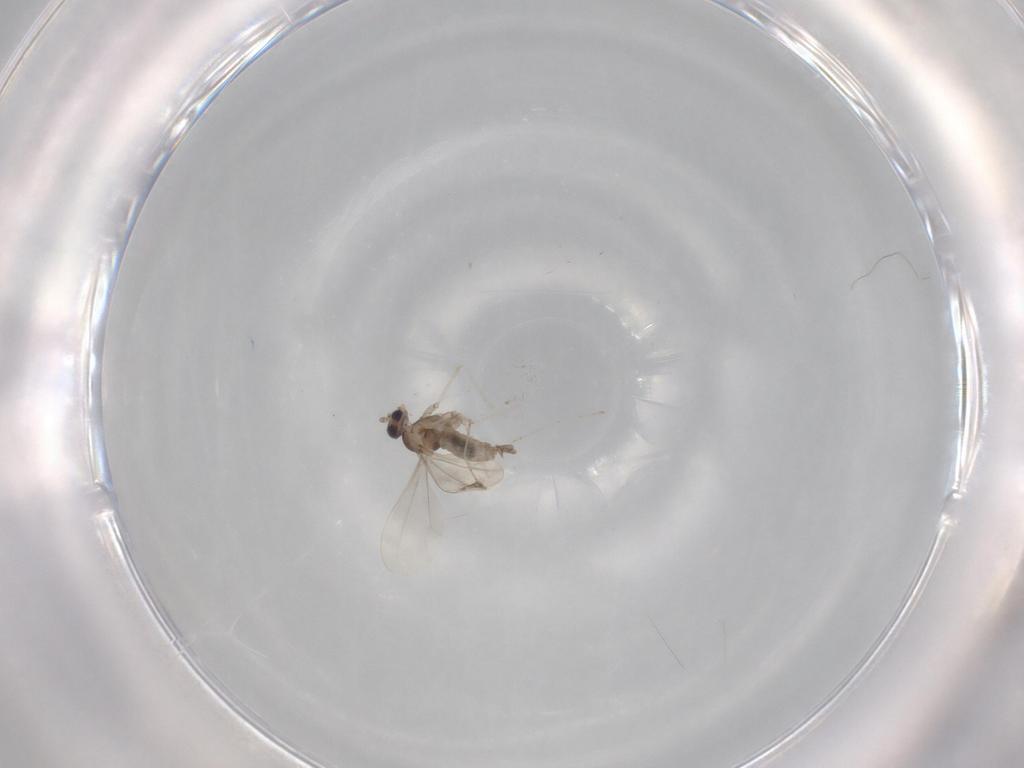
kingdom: Animalia
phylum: Arthropoda
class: Insecta
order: Diptera
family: Cecidomyiidae
